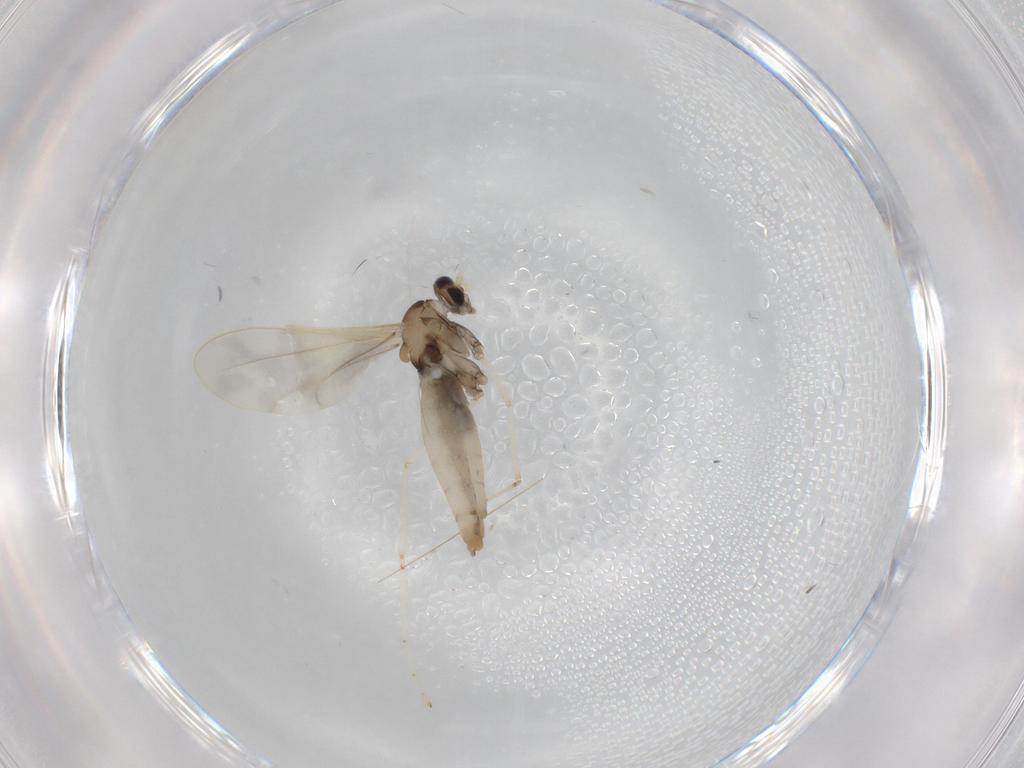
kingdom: Animalia
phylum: Arthropoda
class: Insecta
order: Diptera
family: Cecidomyiidae
